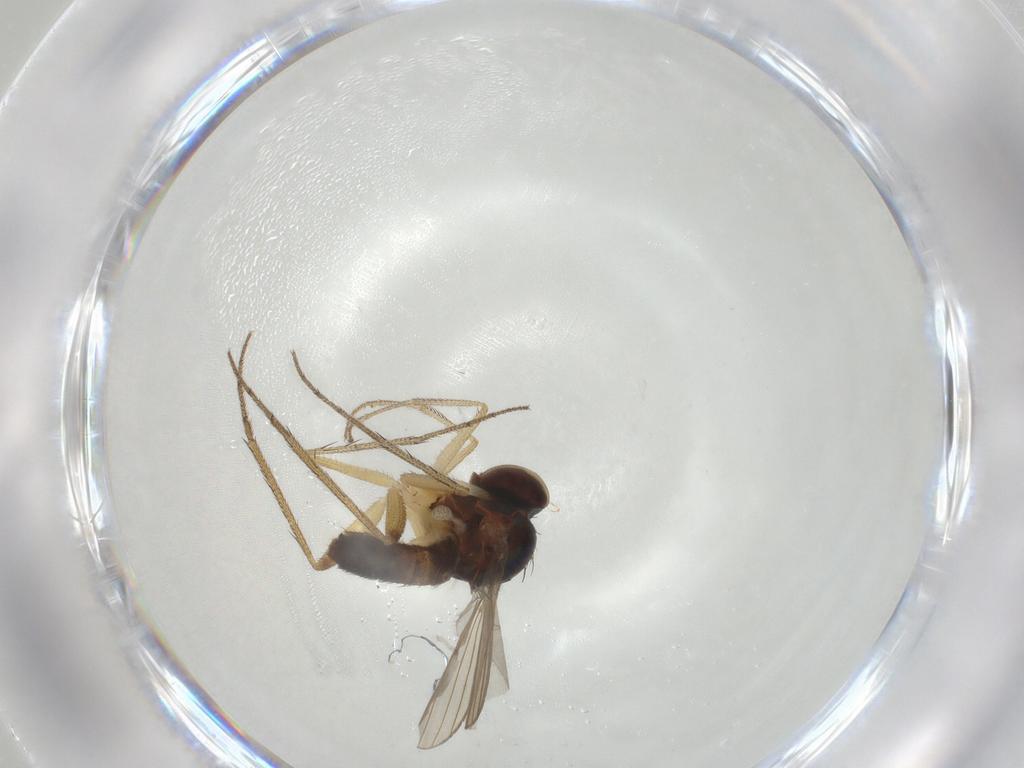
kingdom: Animalia
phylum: Arthropoda
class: Insecta
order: Diptera
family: Dolichopodidae
